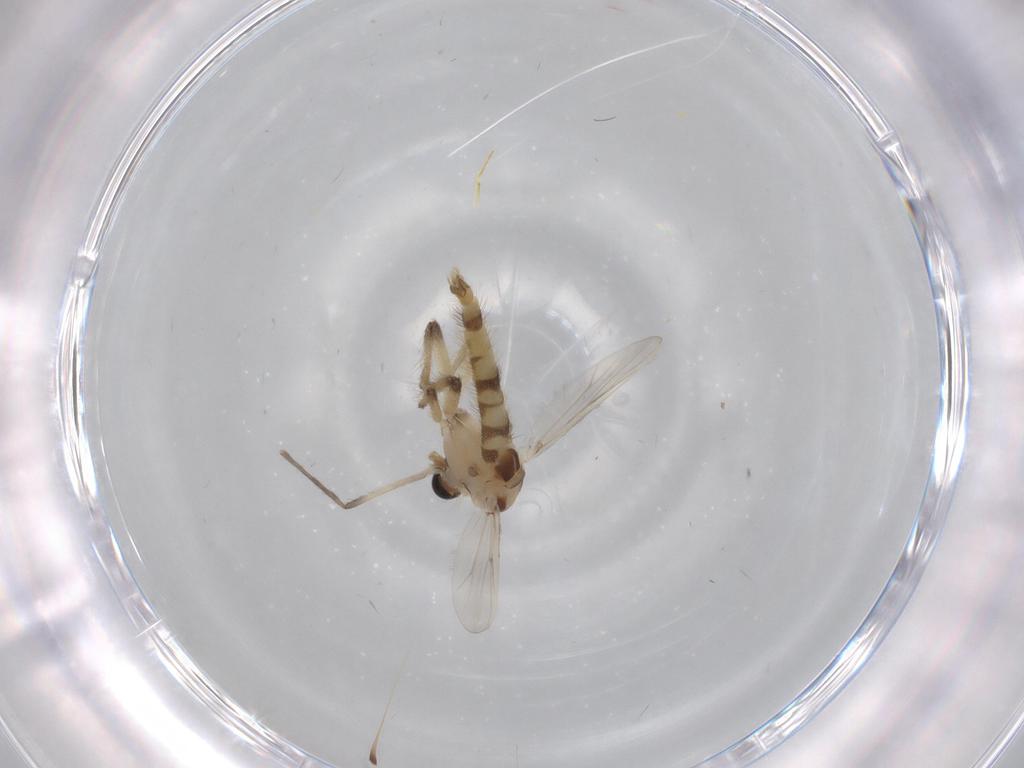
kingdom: Animalia
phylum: Arthropoda
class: Insecta
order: Diptera
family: Chironomidae
